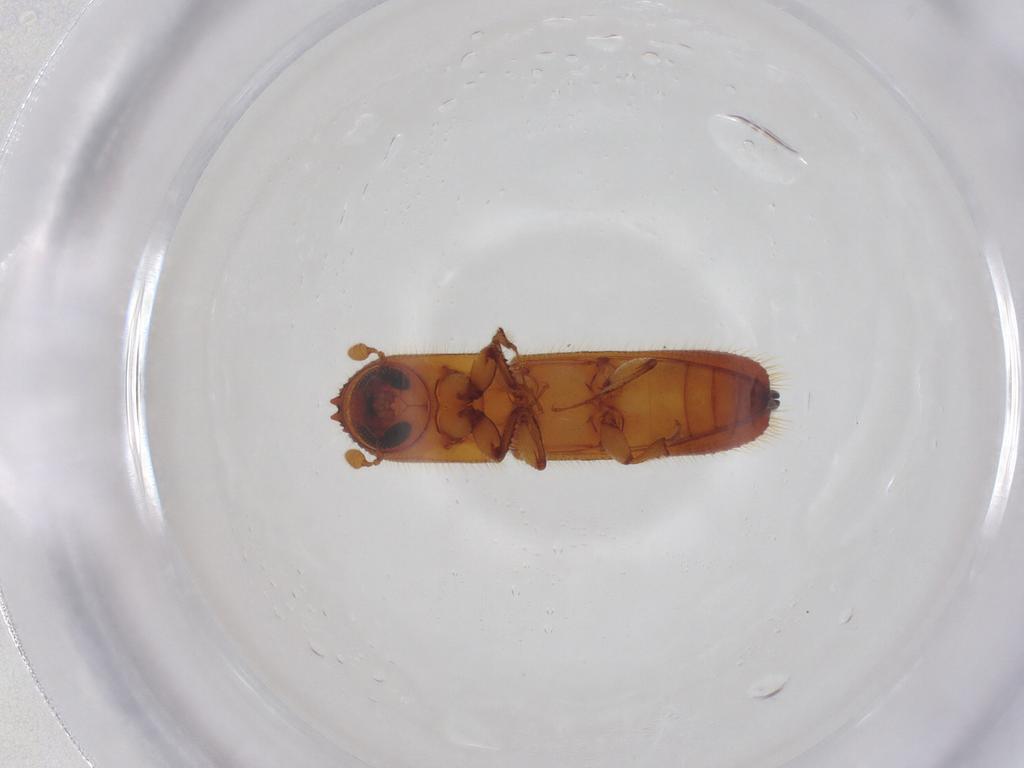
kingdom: Animalia
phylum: Arthropoda
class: Insecta
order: Coleoptera
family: Curculionidae
